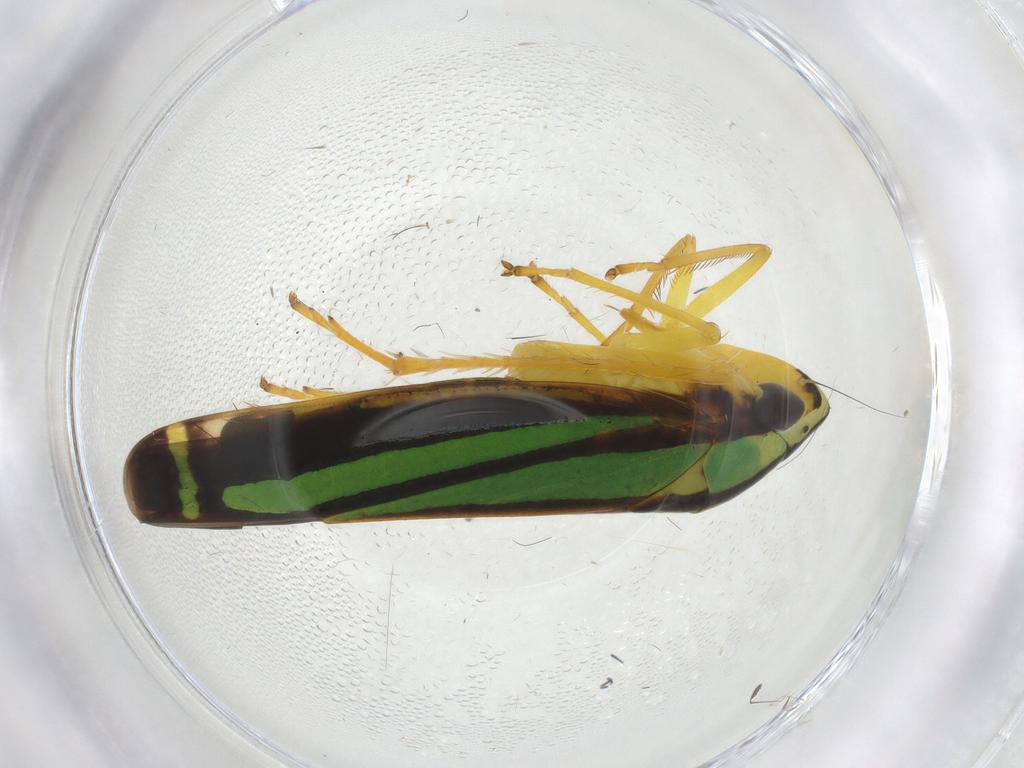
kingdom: Animalia
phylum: Arthropoda
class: Insecta
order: Hemiptera
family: Cicadellidae
